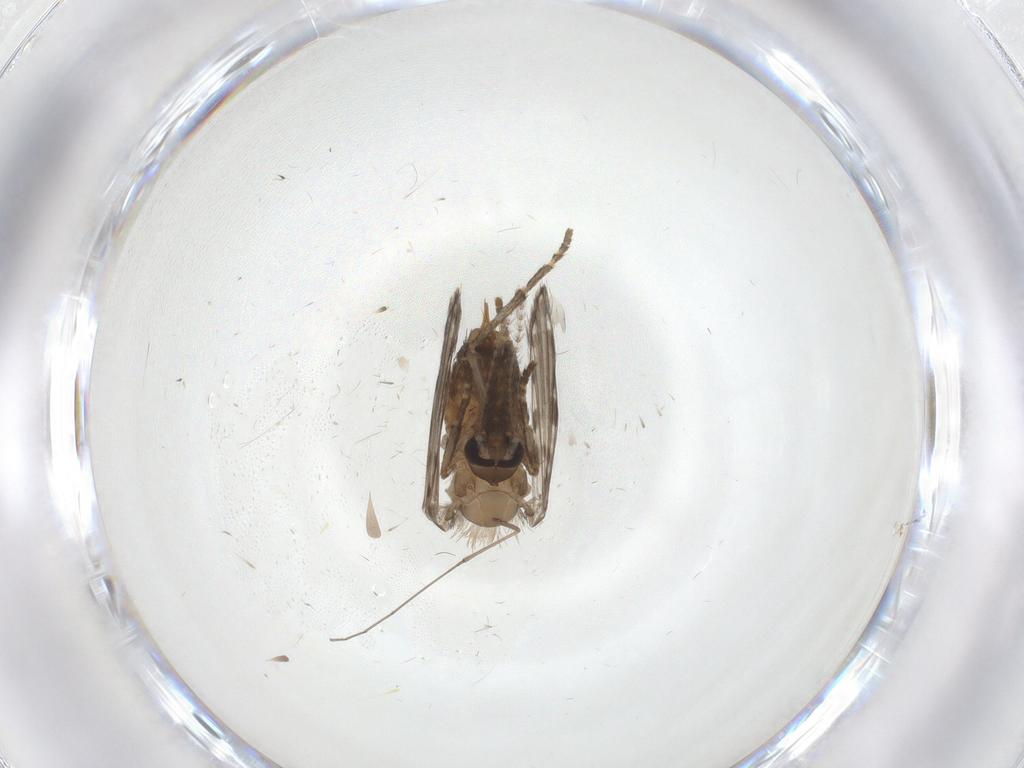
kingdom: Animalia
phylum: Arthropoda
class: Insecta
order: Diptera
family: Psychodidae
